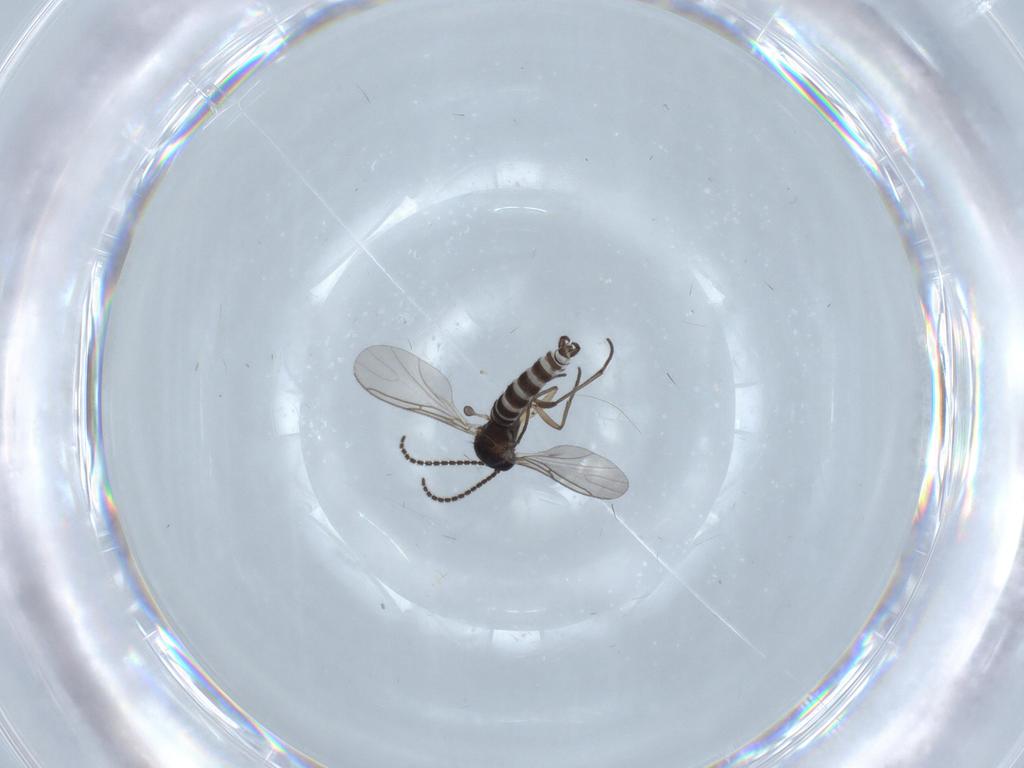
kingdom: Animalia
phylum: Arthropoda
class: Insecta
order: Diptera
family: Sciaridae
